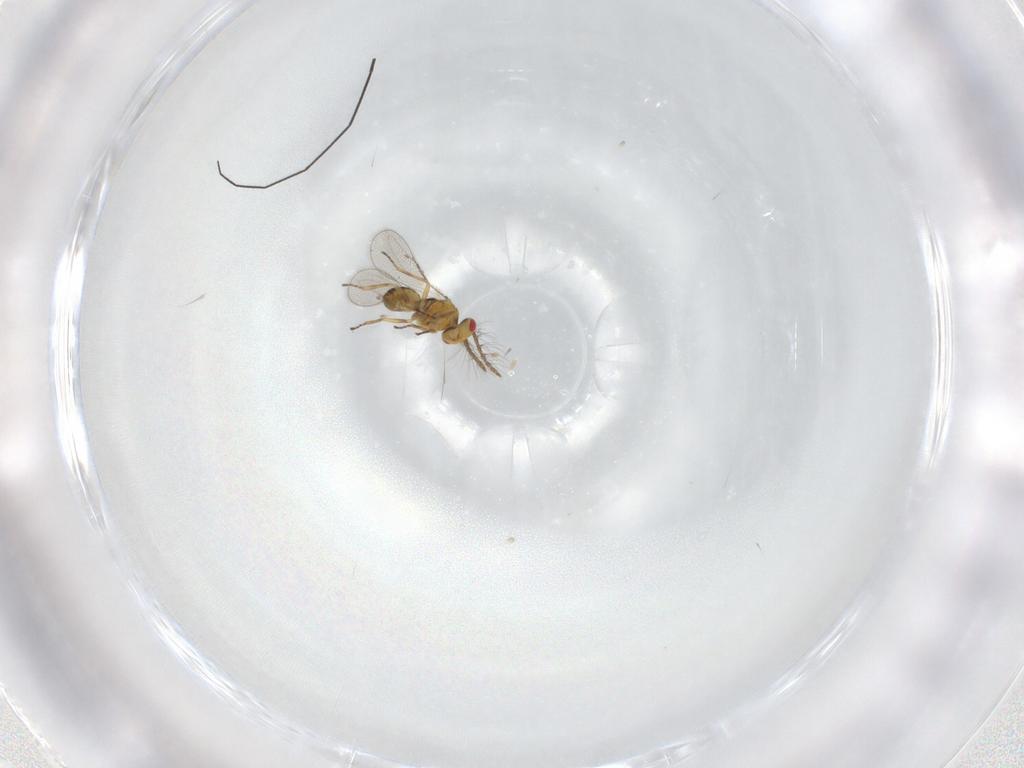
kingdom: Animalia
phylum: Arthropoda
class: Insecta
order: Hymenoptera
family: Eulophidae
